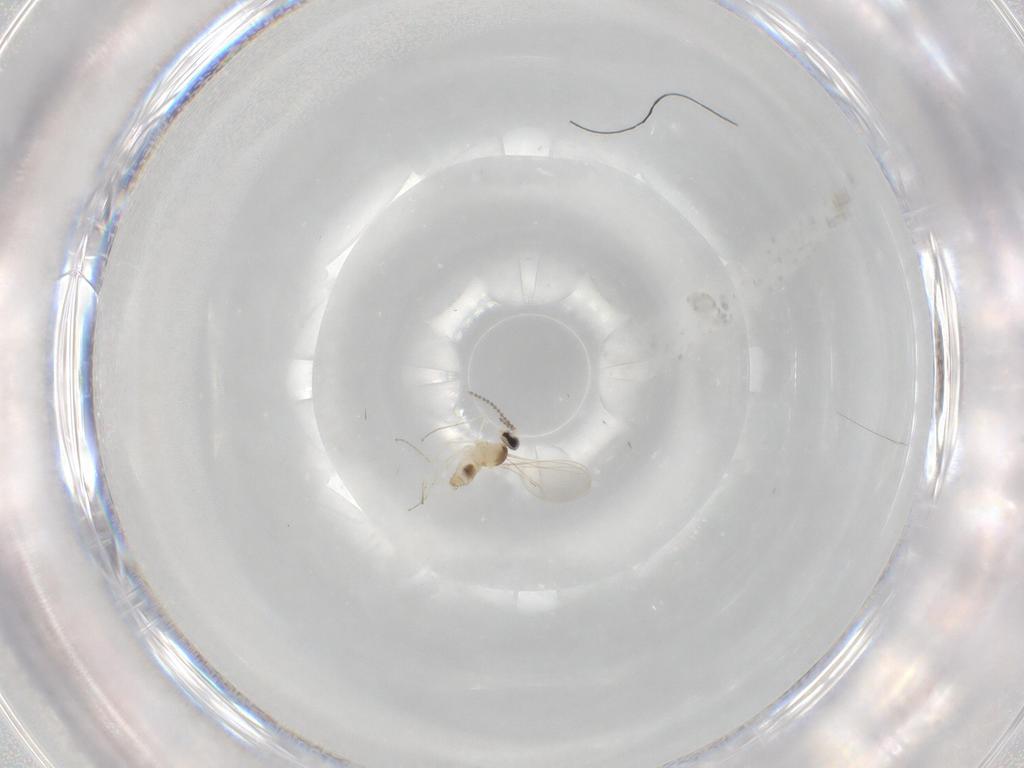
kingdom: Animalia
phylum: Arthropoda
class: Insecta
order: Diptera
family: Cecidomyiidae
